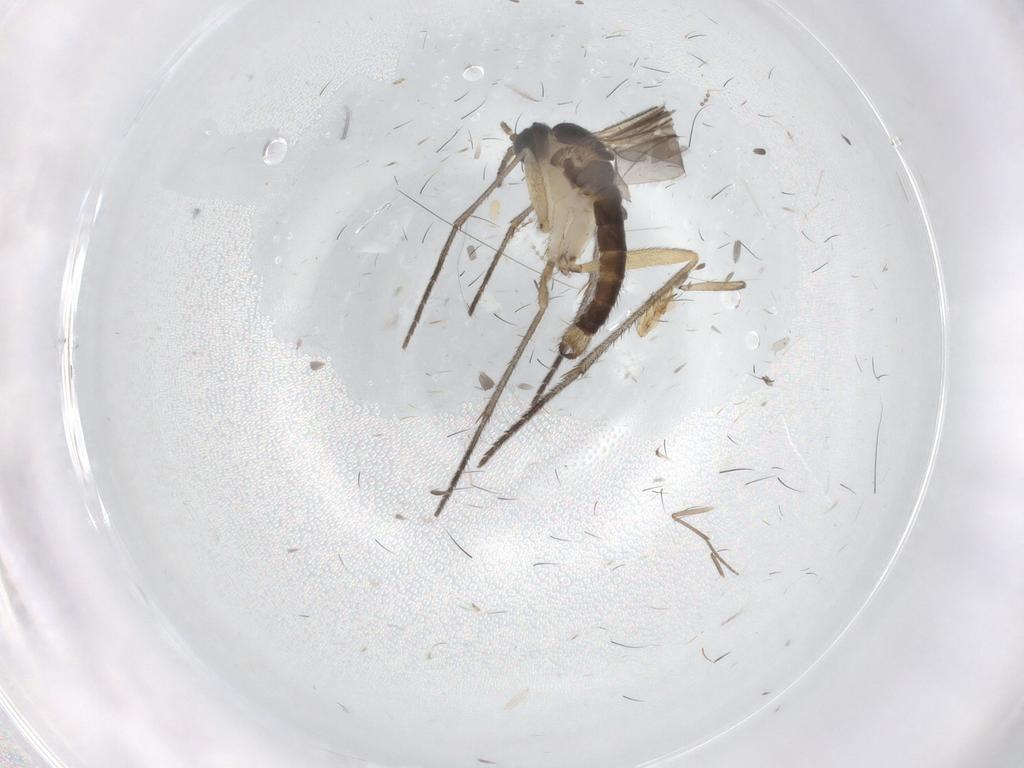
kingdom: Animalia
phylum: Arthropoda
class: Insecta
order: Diptera
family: Sciaridae
